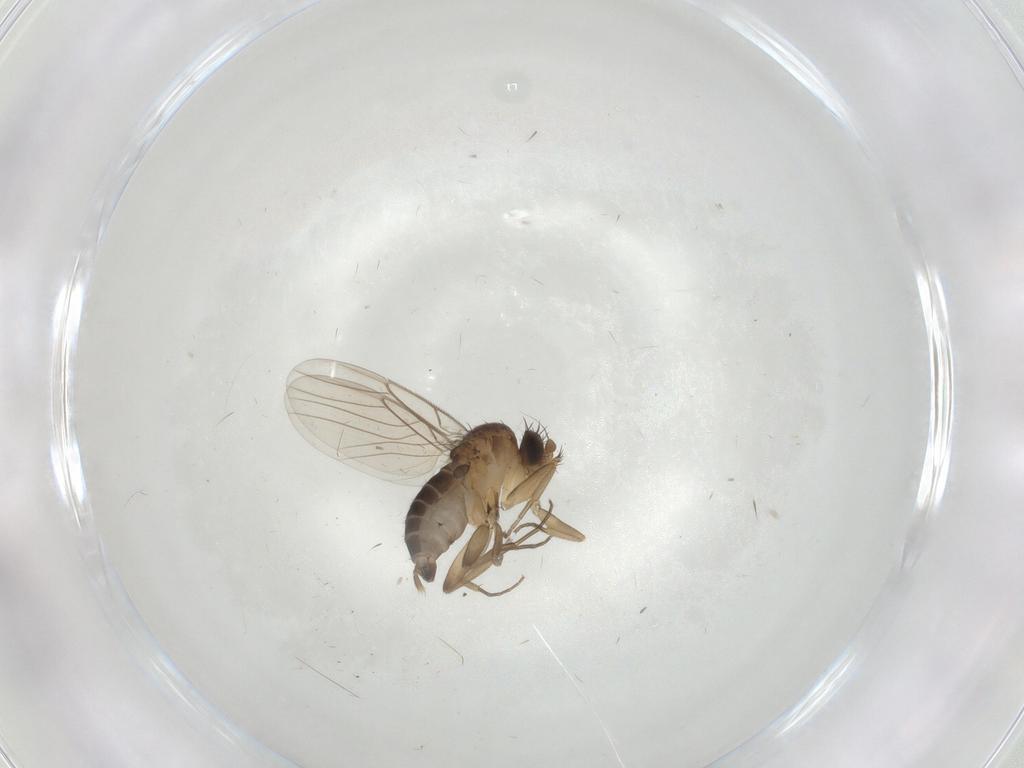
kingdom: Animalia
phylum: Arthropoda
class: Insecta
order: Diptera
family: Phoridae
